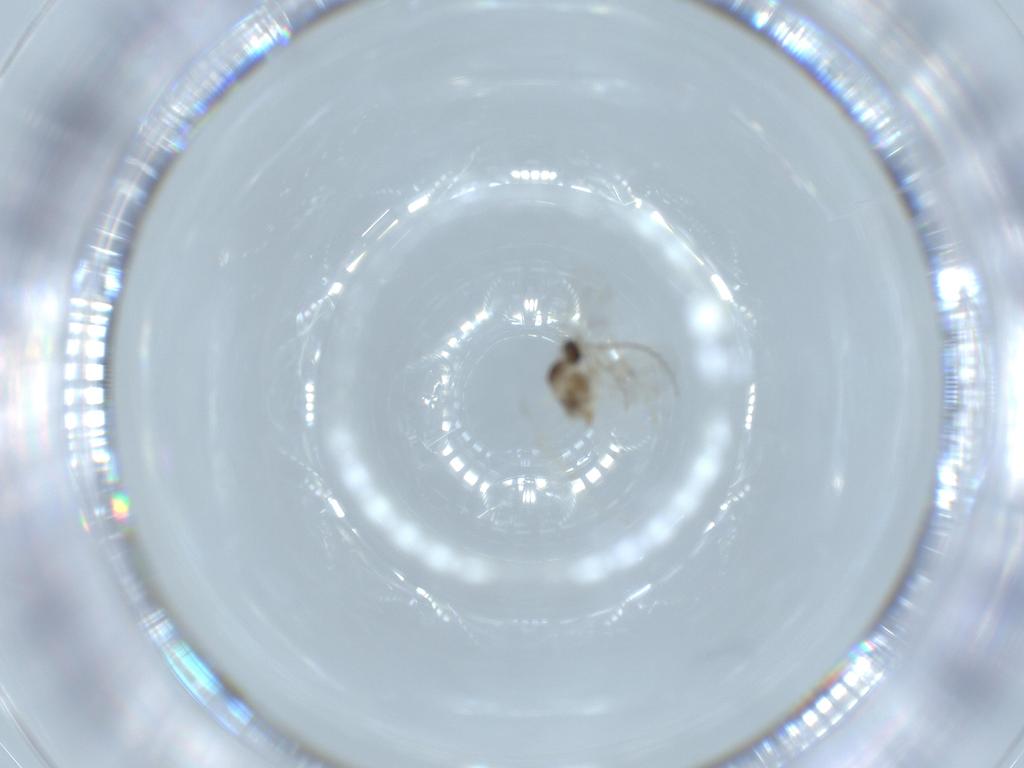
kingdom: Animalia
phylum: Arthropoda
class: Insecta
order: Diptera
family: Cecidomyiidae
